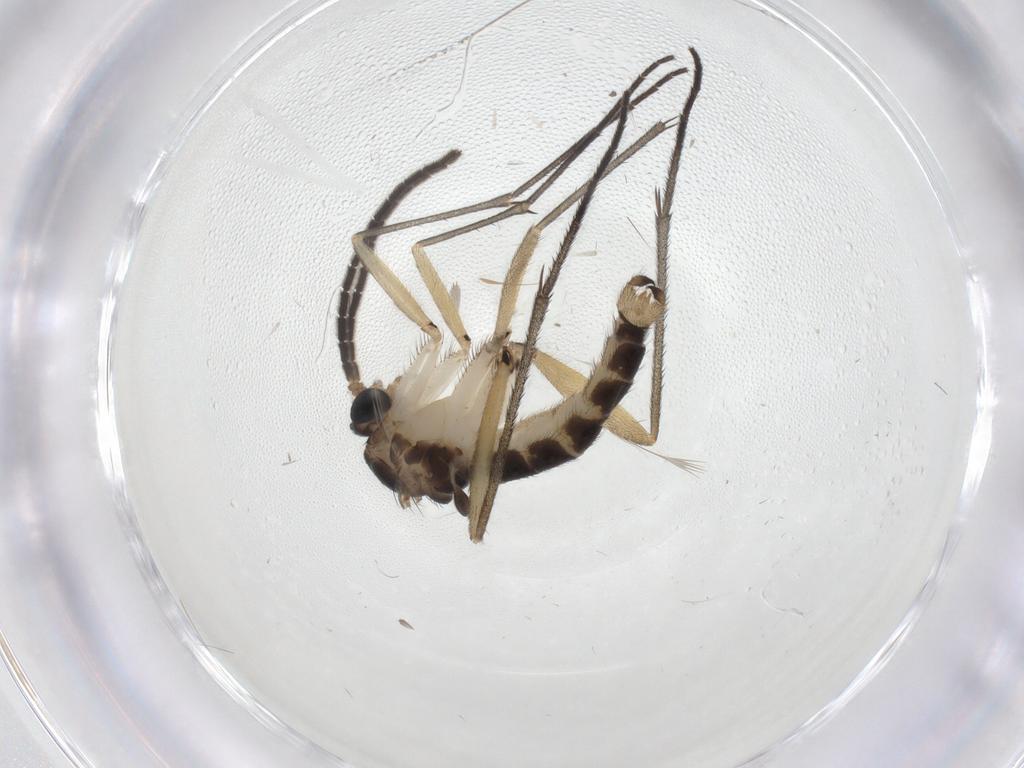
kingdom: Animalia
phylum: Arthropoda
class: Insecta
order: Diptera
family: Sciaridae
